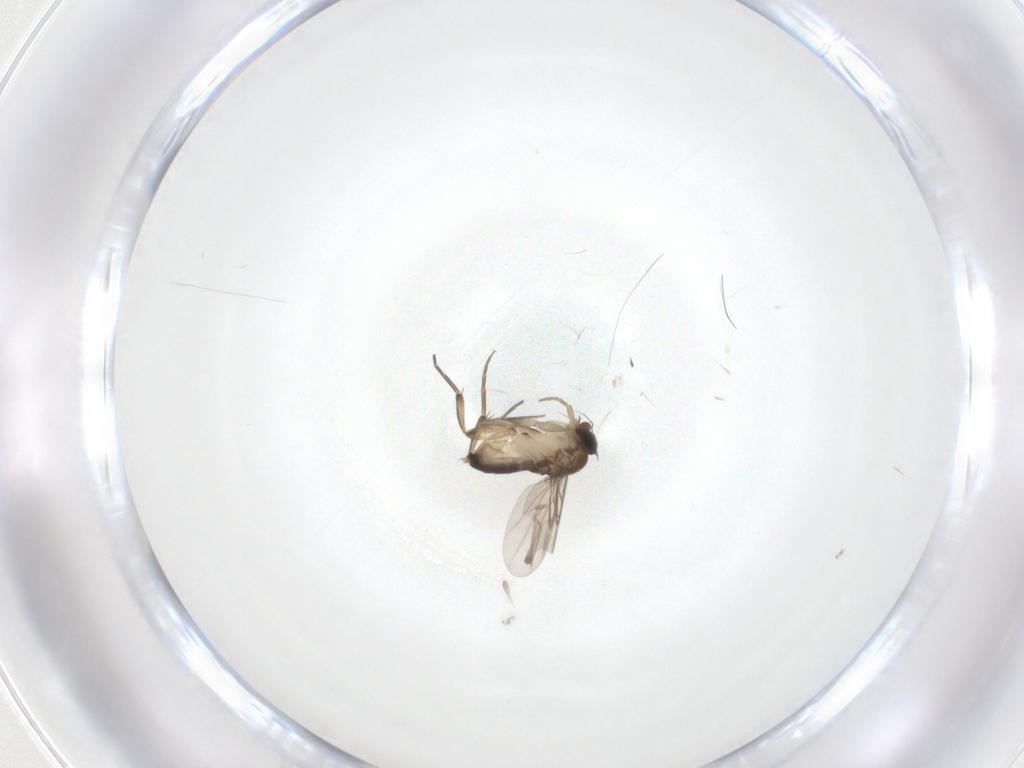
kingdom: Animalia
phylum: Arthropoda
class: Insecta
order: Diptera
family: Phoridae
